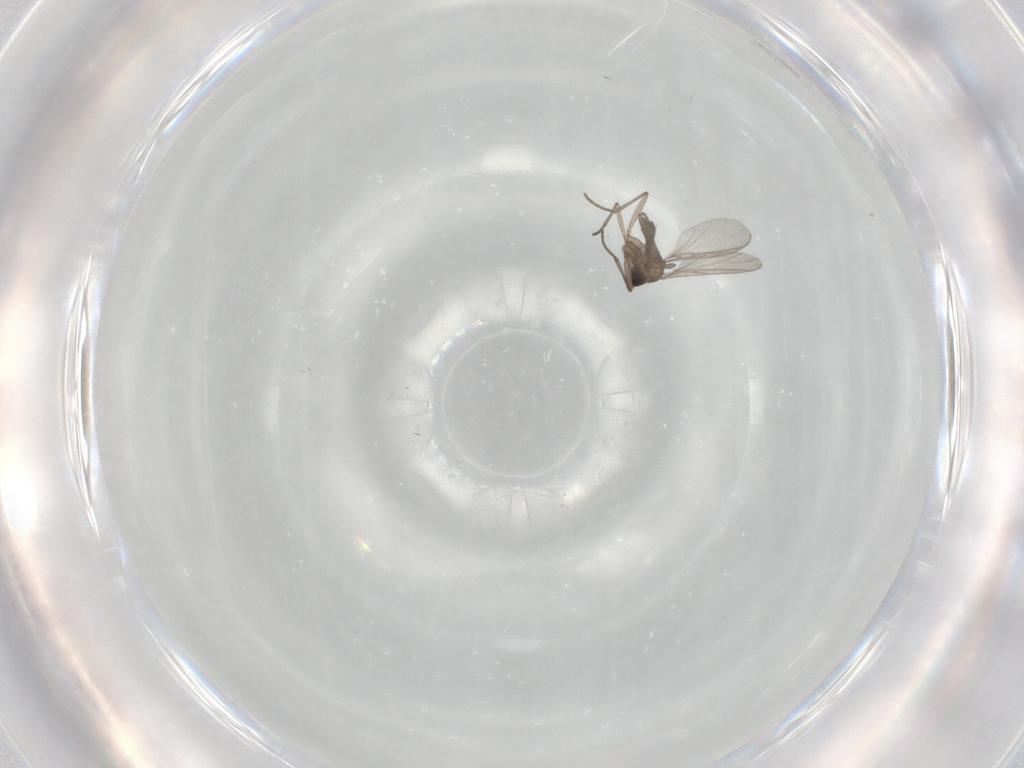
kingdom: Animalia
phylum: Arthropoda
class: Insecta
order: Diptera
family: Sciaridae
